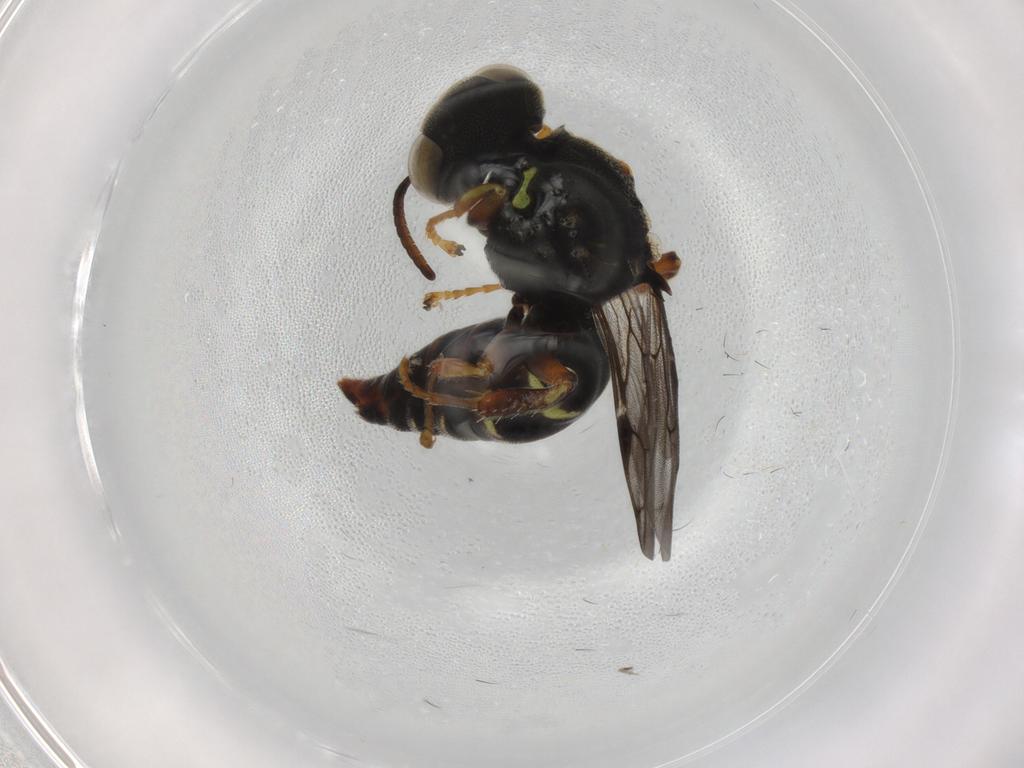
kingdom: Animalia
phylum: Arthropoda
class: Insecta
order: Hymenoptera
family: Crabronidae
